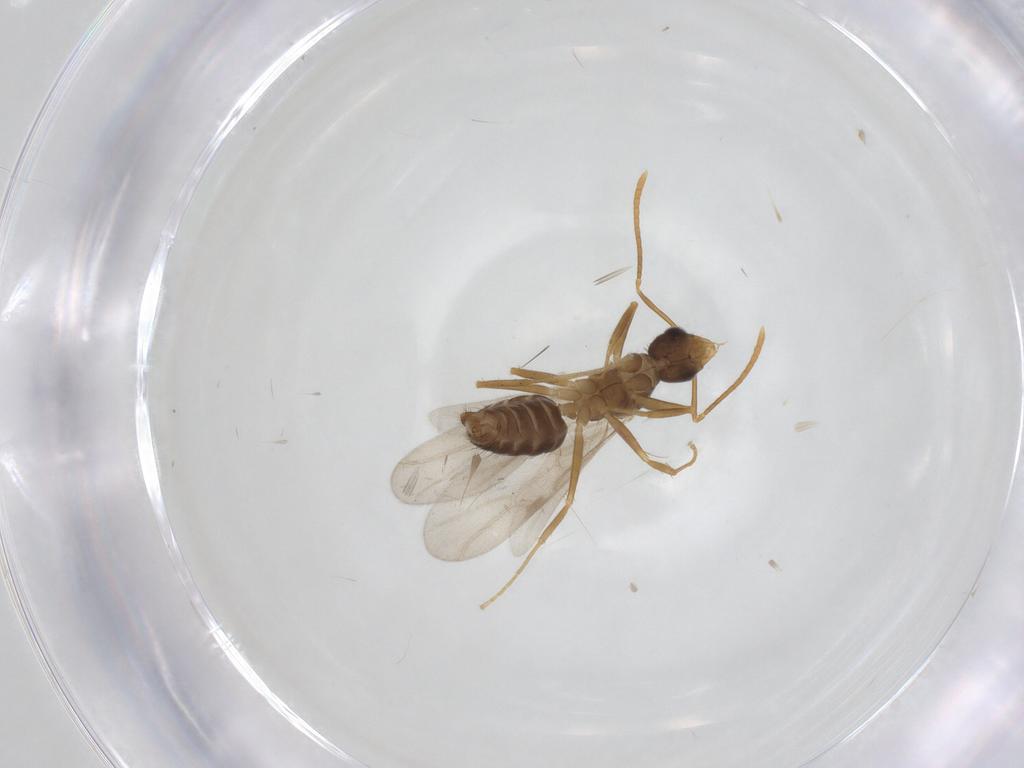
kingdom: Animalia
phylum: Arthropoda
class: Insecta
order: Hymenoptera
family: Formicidae
